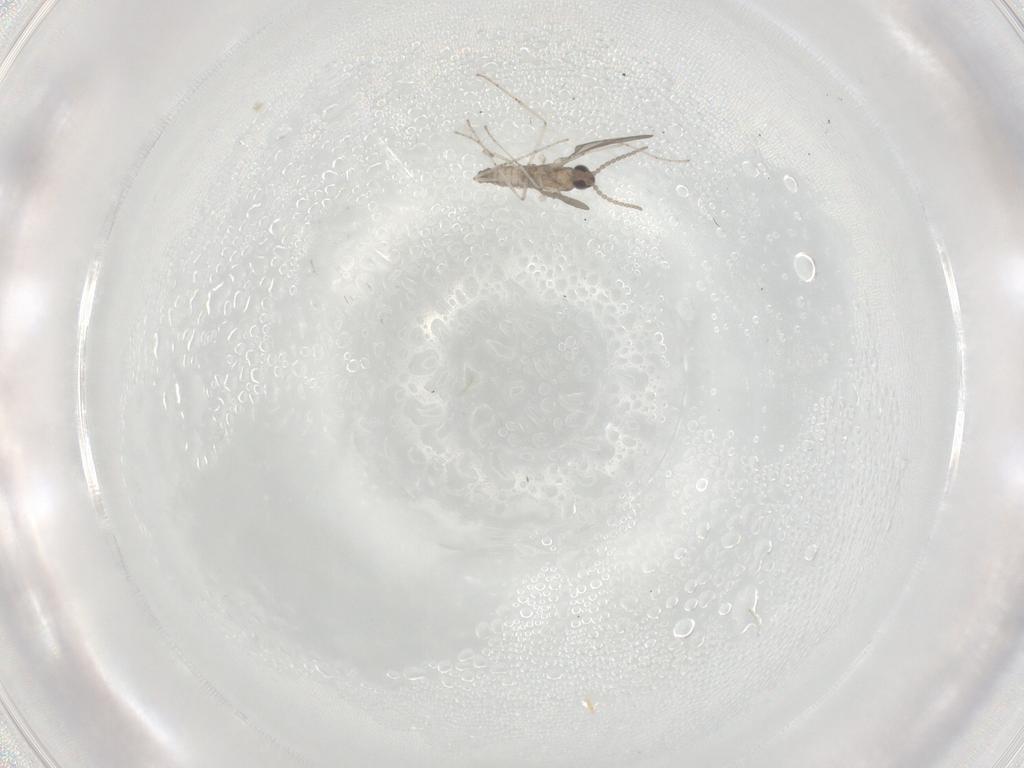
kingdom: Animalia
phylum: Arthropoda
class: Insecta
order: Diptera
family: Cecidomyiidae
